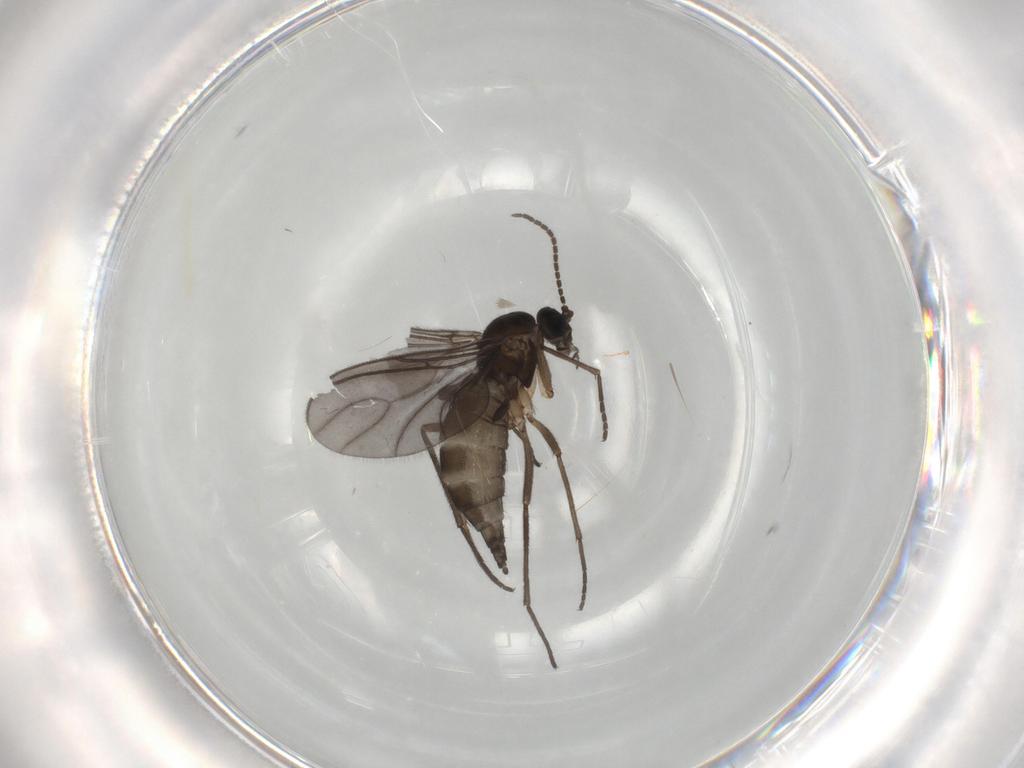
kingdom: Animalia
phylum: Arthropoda
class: Insecta
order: Diptera
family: Sciaridae
